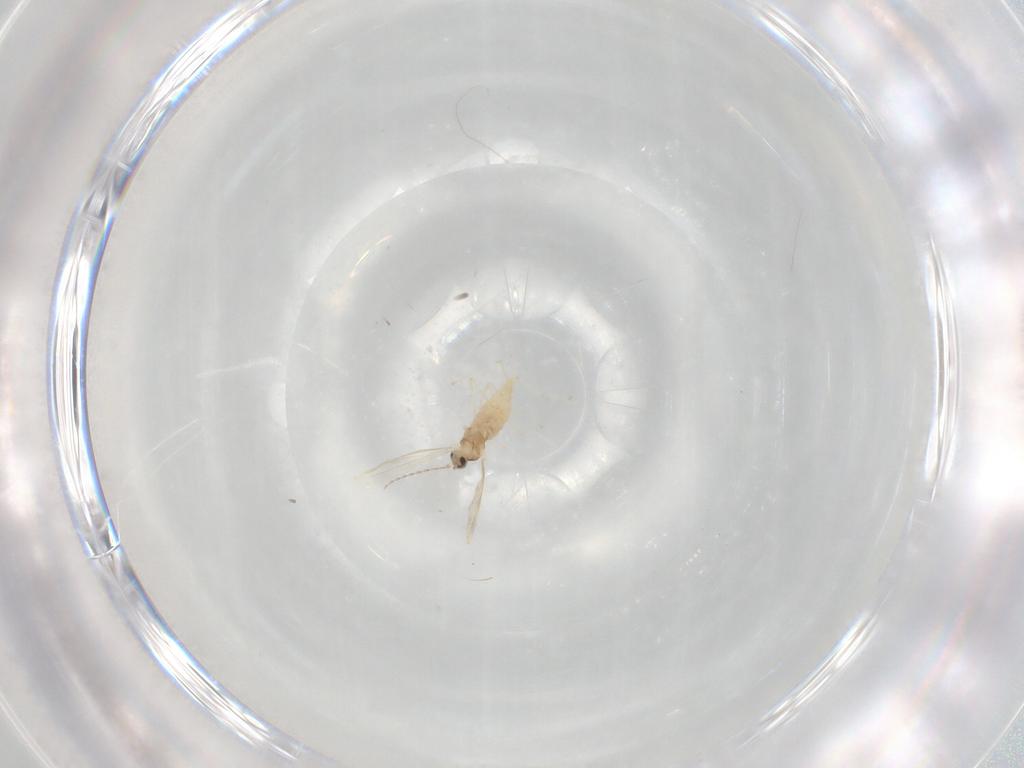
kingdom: Animalia
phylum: Arthropoda
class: Insecta
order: Diptera
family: Cecidomyiidae
